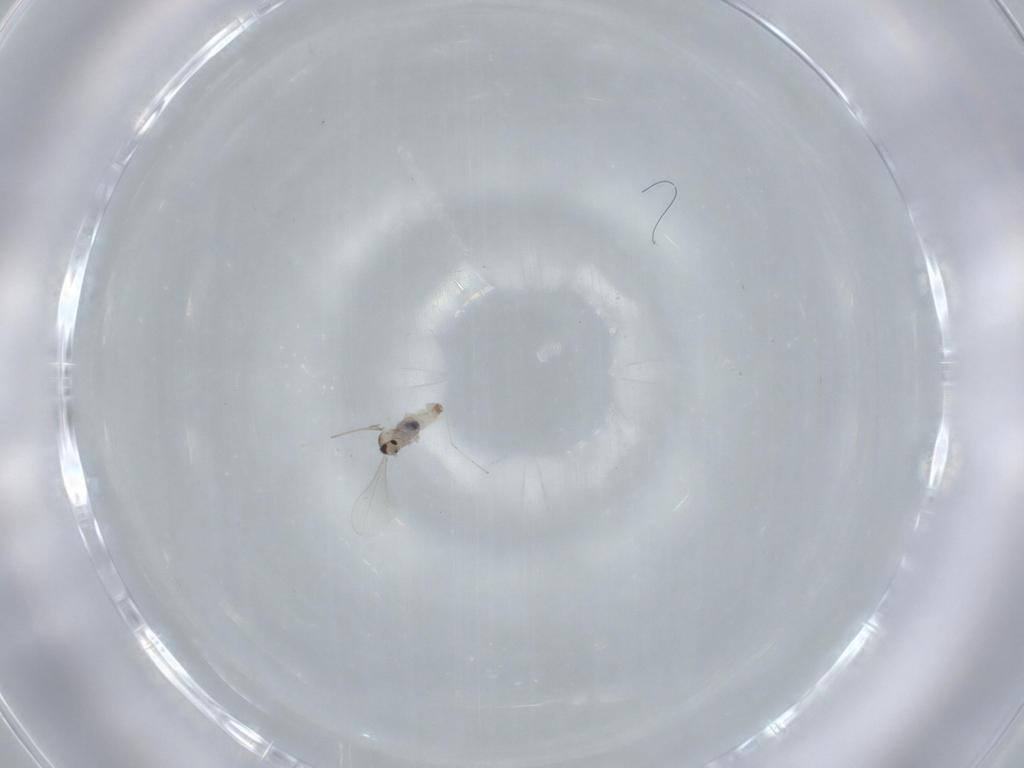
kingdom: Animalia
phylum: Arthropoda
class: Insecta
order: Diptera
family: Cecidomyiidae
